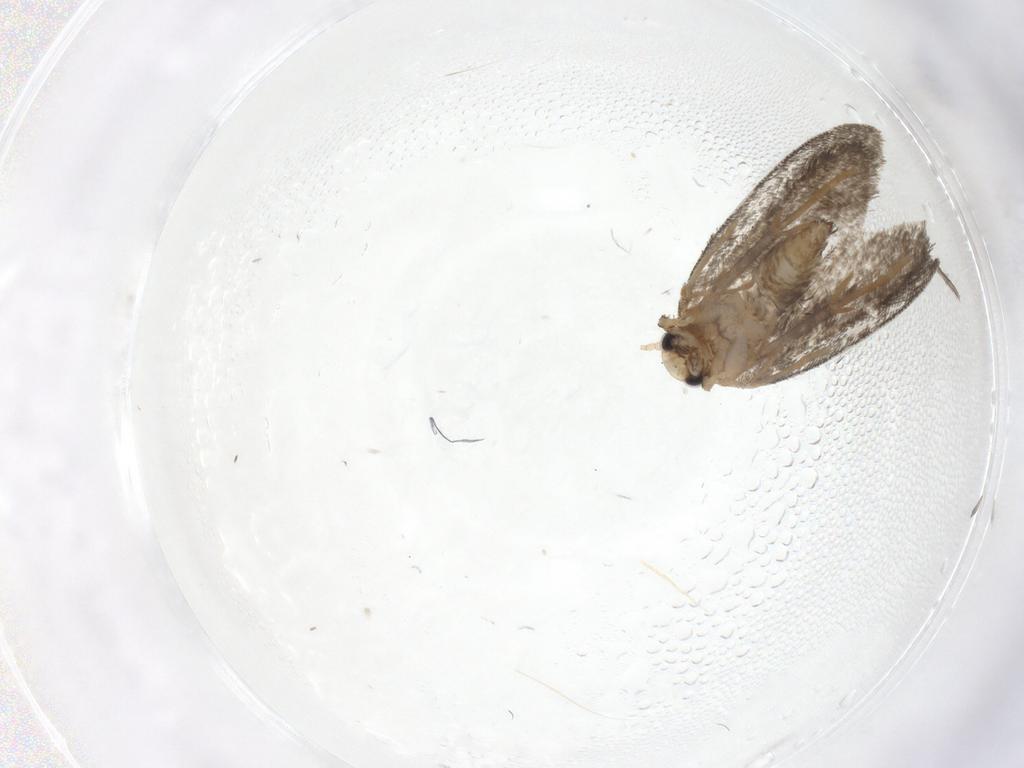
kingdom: Animalia
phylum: Arthropoda
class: Insecta
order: Lepidoptera
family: Psychidae
